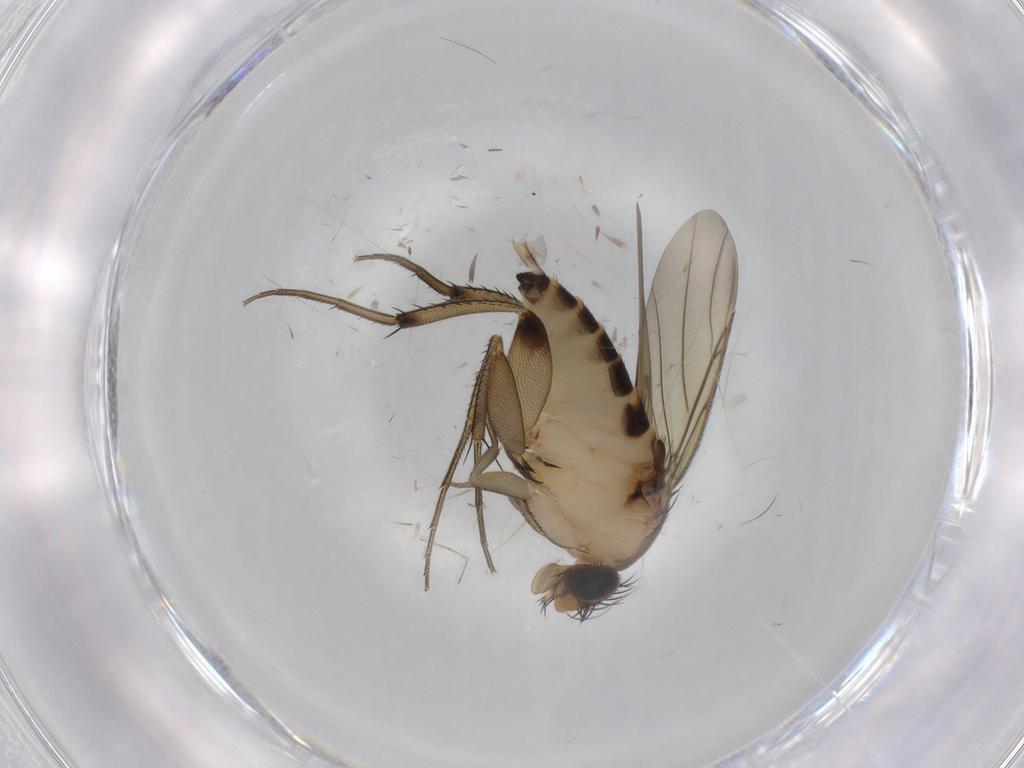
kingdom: Animalia
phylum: Arthropoda
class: Insecta
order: Diptera
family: Phoridae
